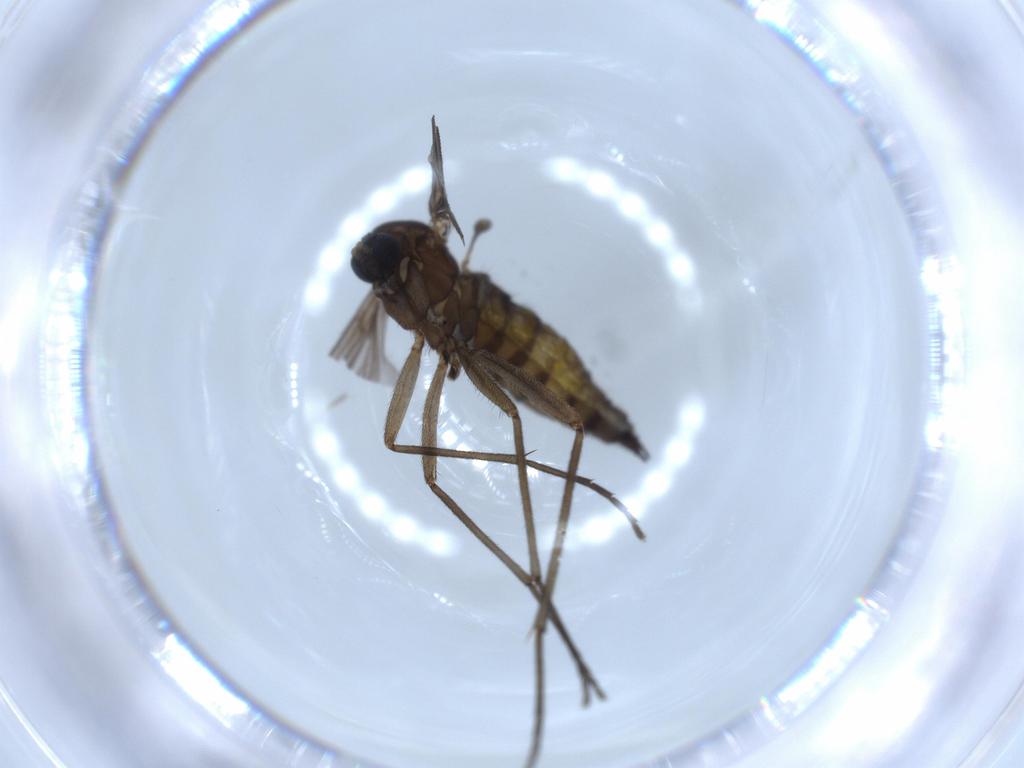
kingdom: Animalia
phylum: Arthropoda
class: Insecta
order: Diptera
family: Sciaridae
